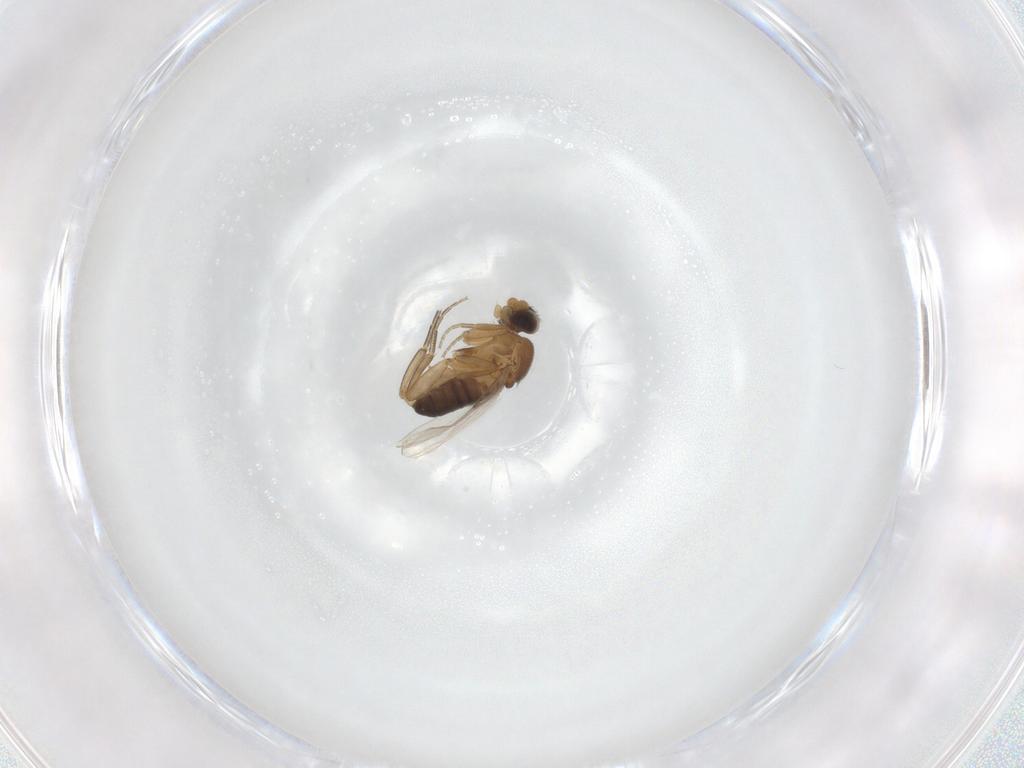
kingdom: Animalia
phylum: Arthropoda
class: Insecta
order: Diptera
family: Phoridae
